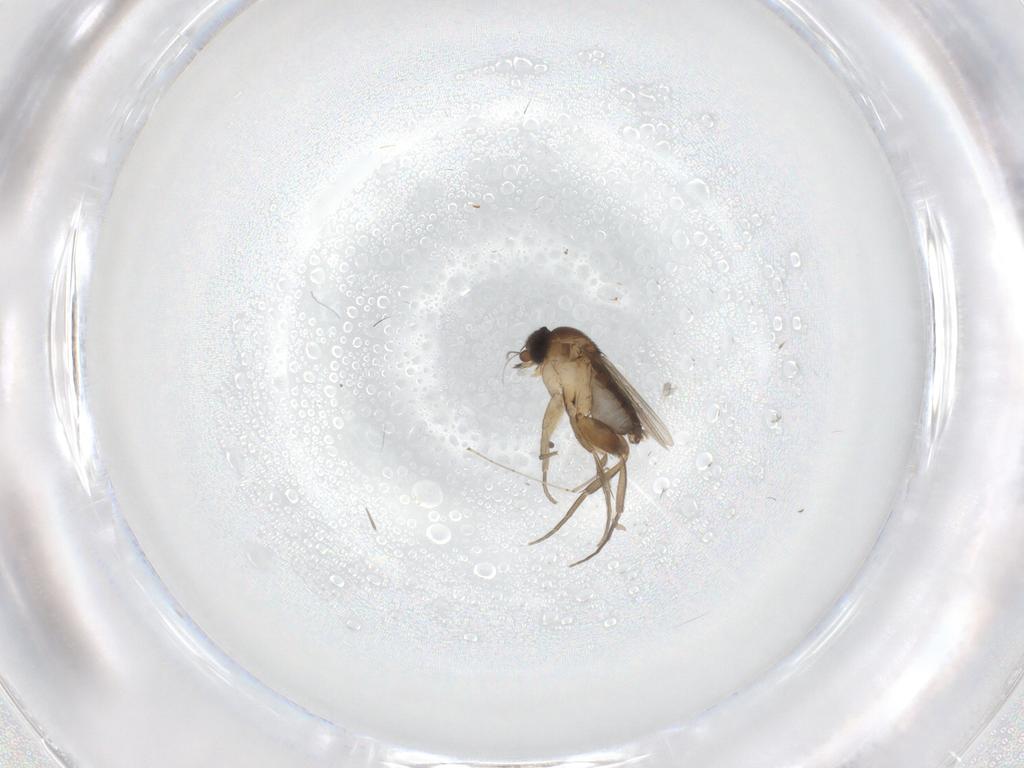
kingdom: Animalia
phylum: Arthropoda
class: Insecta
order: Diptera
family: Phoridae
